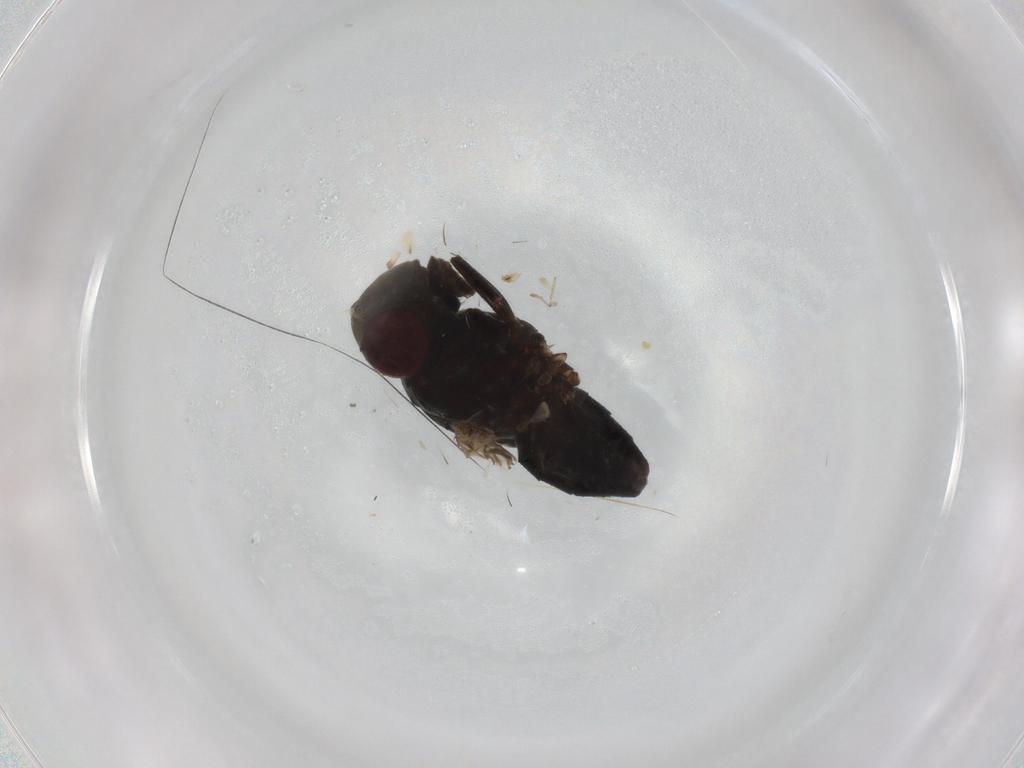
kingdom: Animalia
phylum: Arthropoda
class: Insecta
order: Diptera
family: Ephydridae
